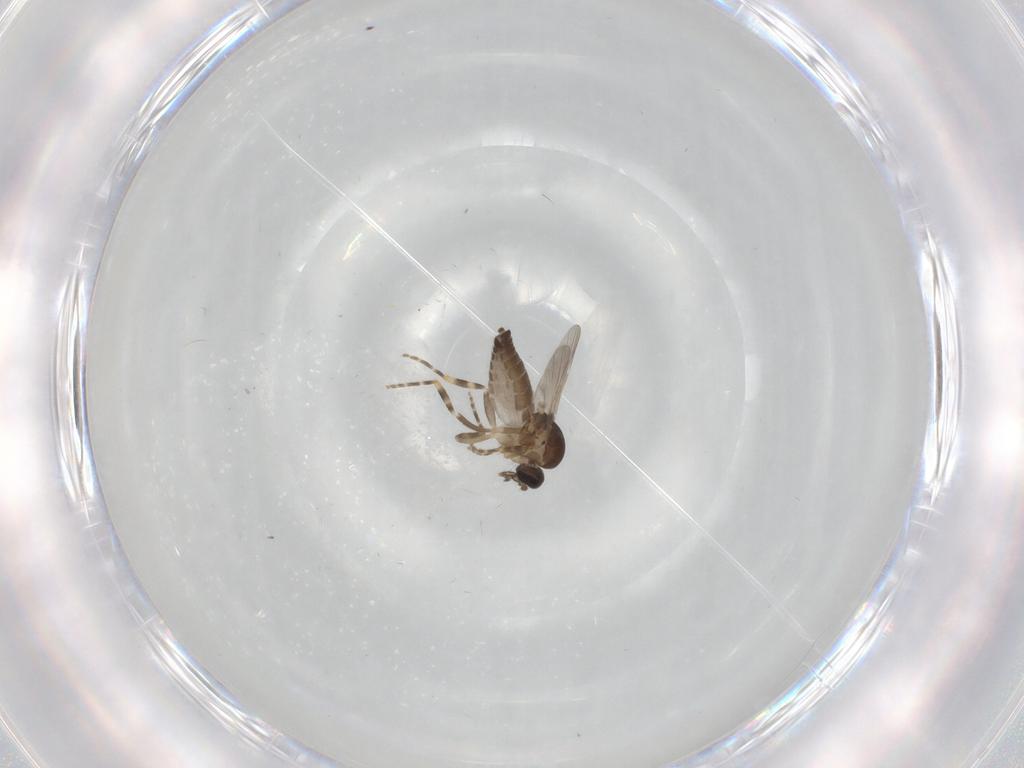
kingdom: Animalia
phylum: Arthropoda
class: Insecta
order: Diptera
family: Ceratopogonidae
